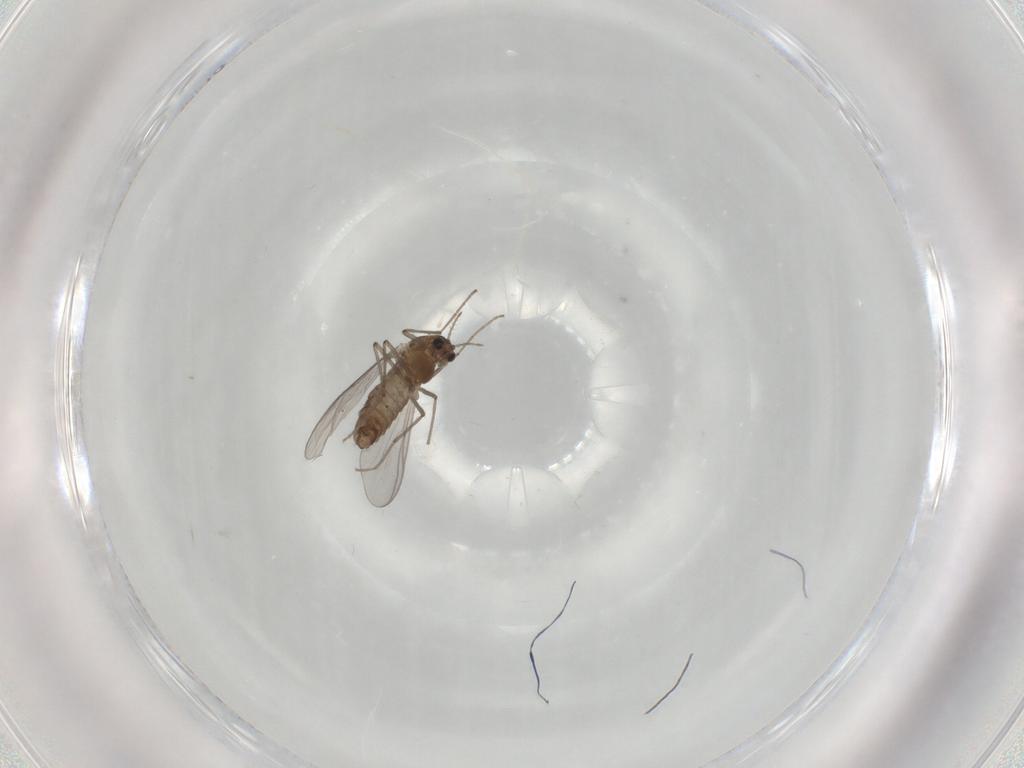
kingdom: Animalia
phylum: Arthropoda
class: Insecta
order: Diptera
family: Chironomidae
